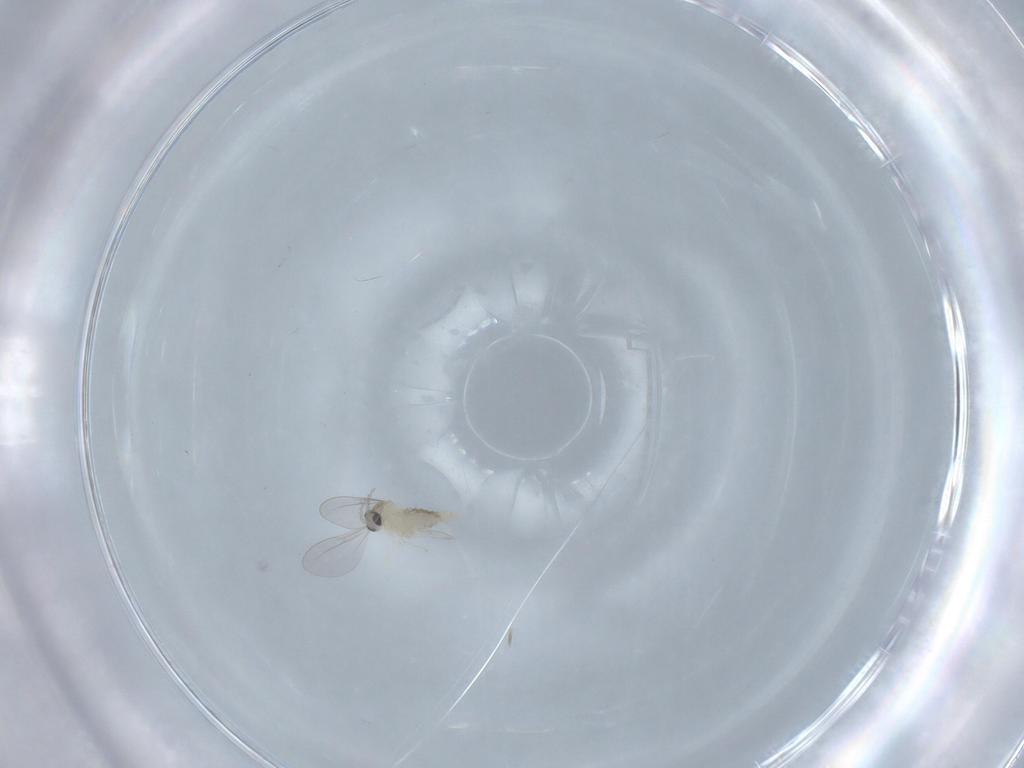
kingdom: Animalia
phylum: Arthropoda
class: Insecta
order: Diptera
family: Cecidomyiidae
